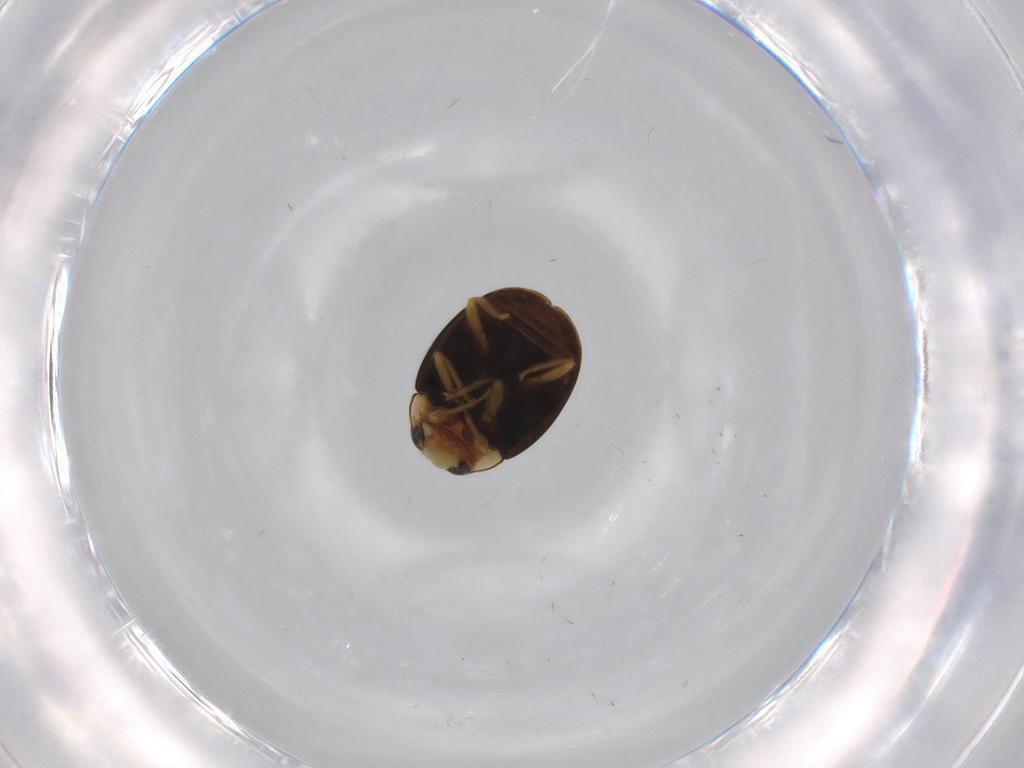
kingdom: Animalia
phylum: Arthropoda
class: Insecta
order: Coleoptera
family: Coccinellidae
